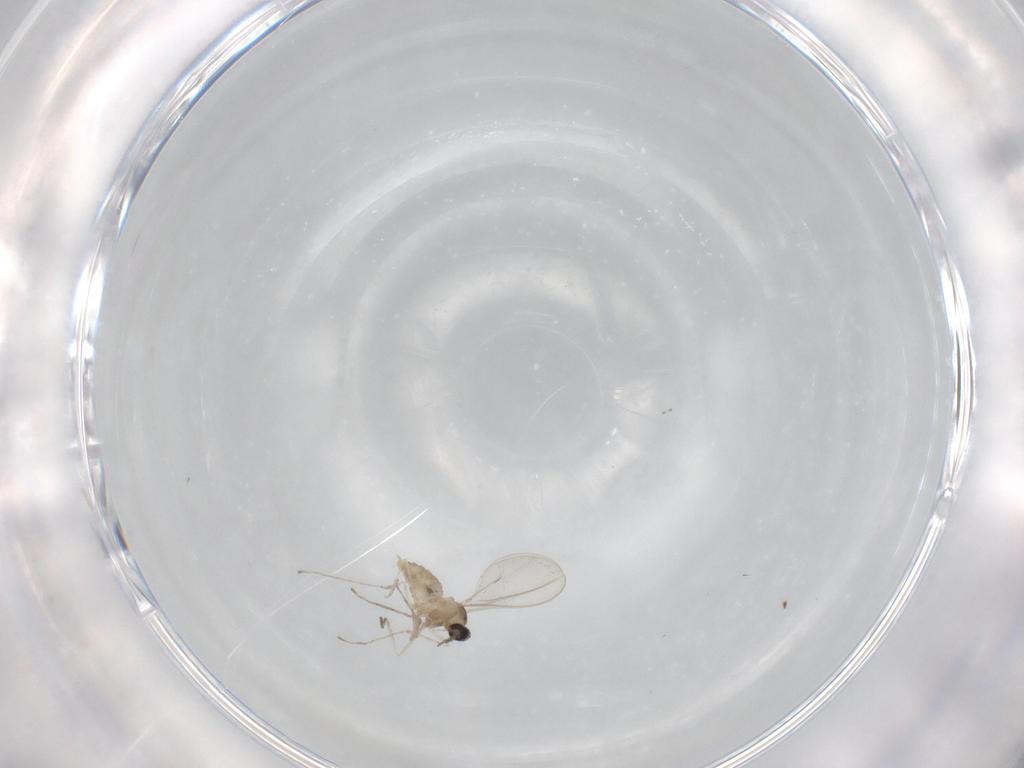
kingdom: Animalia
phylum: Arthropoda
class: Insecta
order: Diptera
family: Cecidomyiidae
